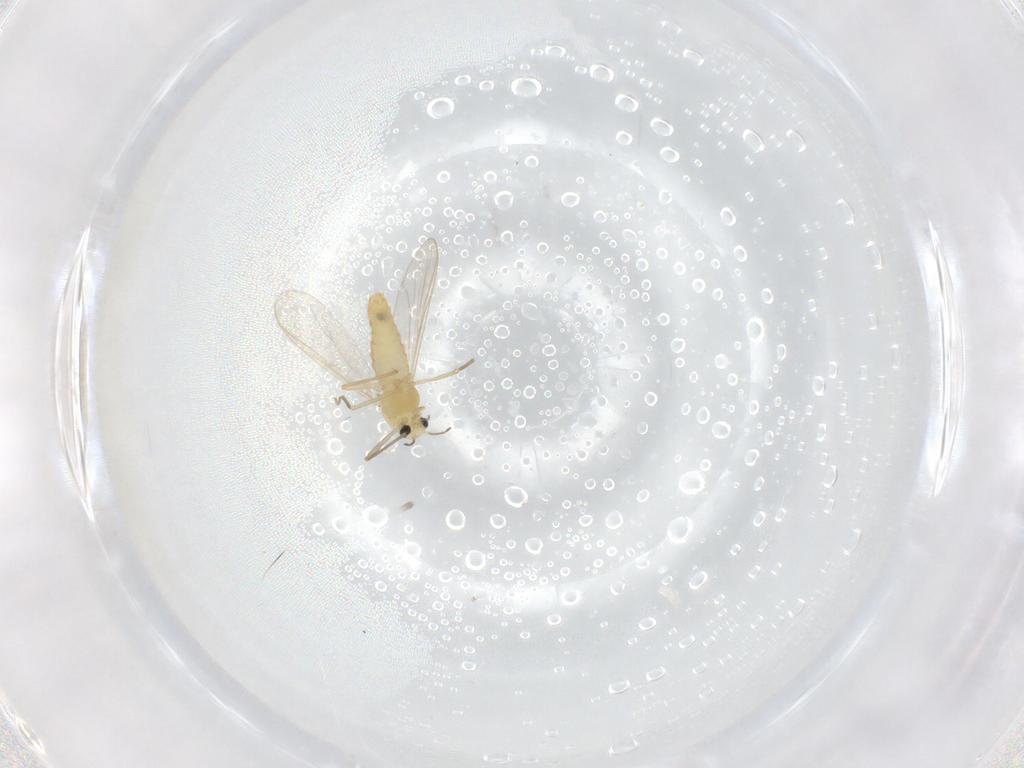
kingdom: Animalia
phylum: Arthropoda
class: Insecta
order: Diptera
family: Chironomidae
